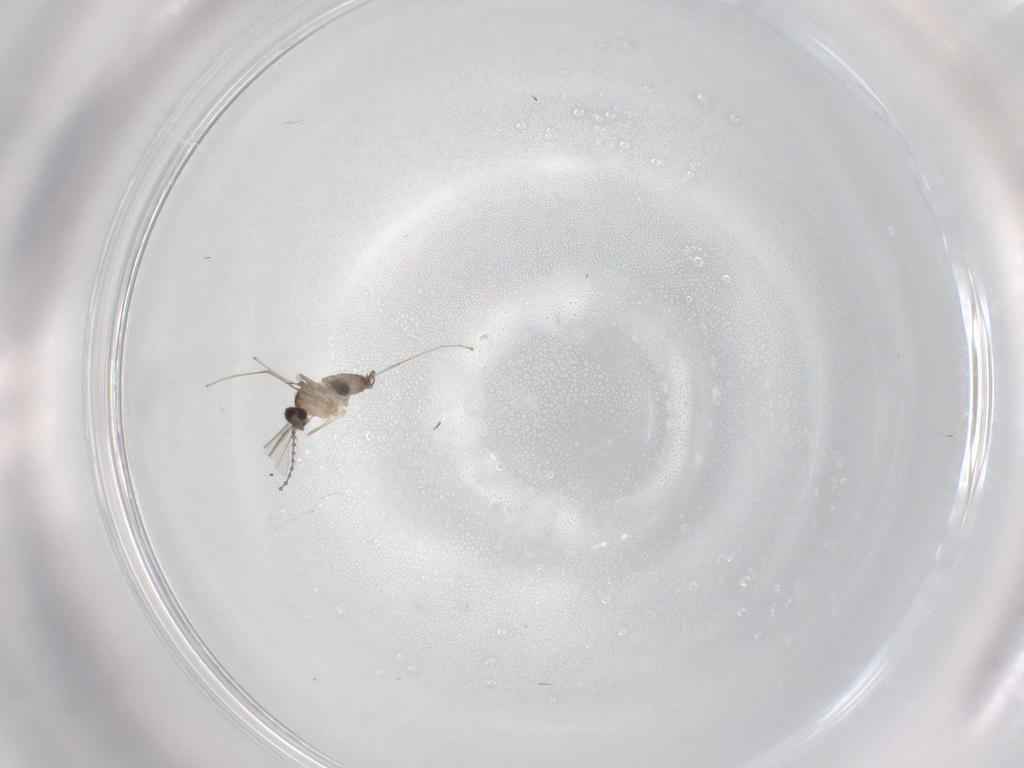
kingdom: Animalia
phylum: Arthropoda
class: Insecta
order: Diptera
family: Cecidomyiidae
